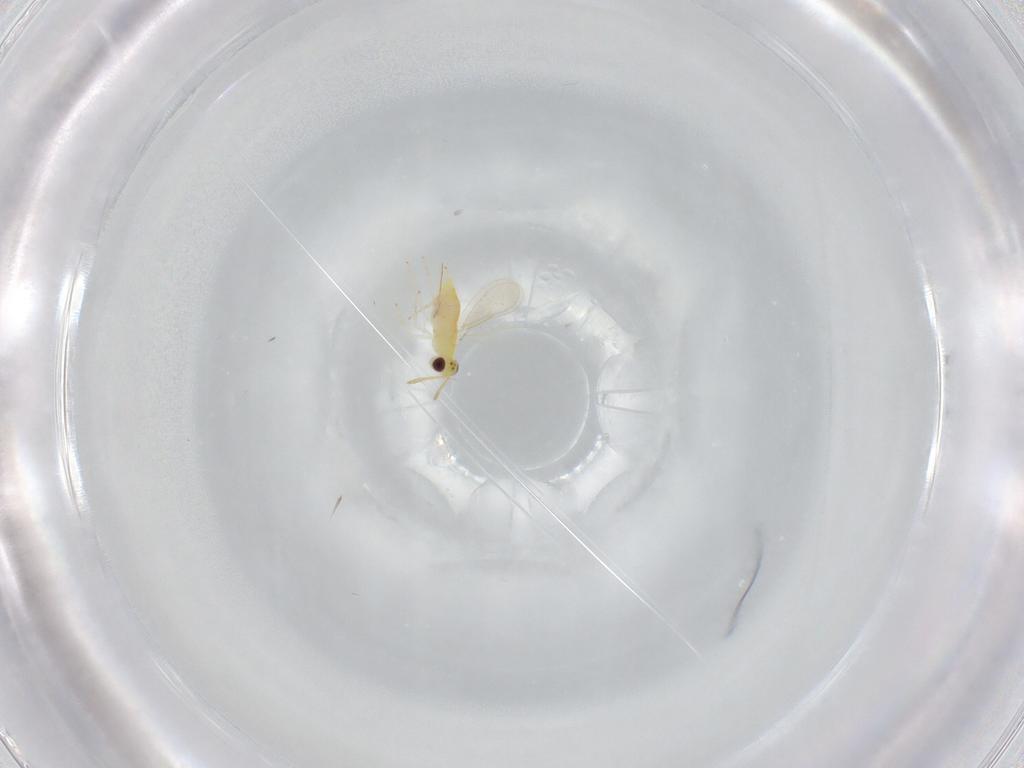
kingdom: Animalia
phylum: Arthropoda
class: Insecta
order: Hymenoptera
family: Aphelinidae
